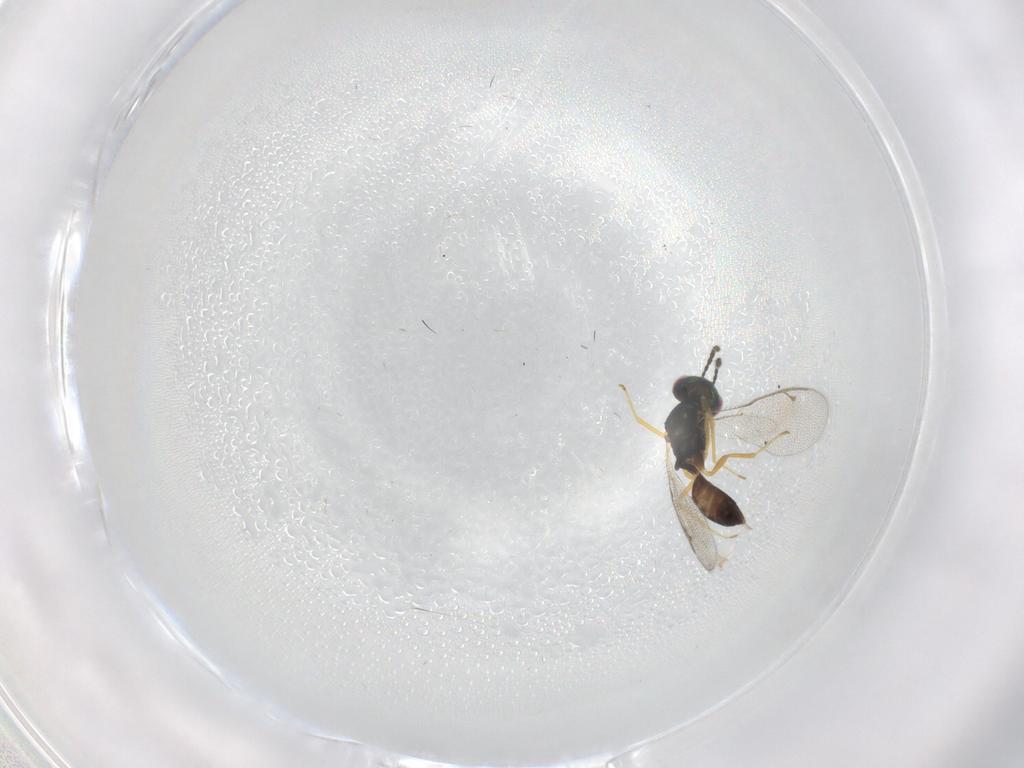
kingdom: Animalia
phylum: Arthropoda
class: Insecta
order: Hymenoptera
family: Pteromalidae
